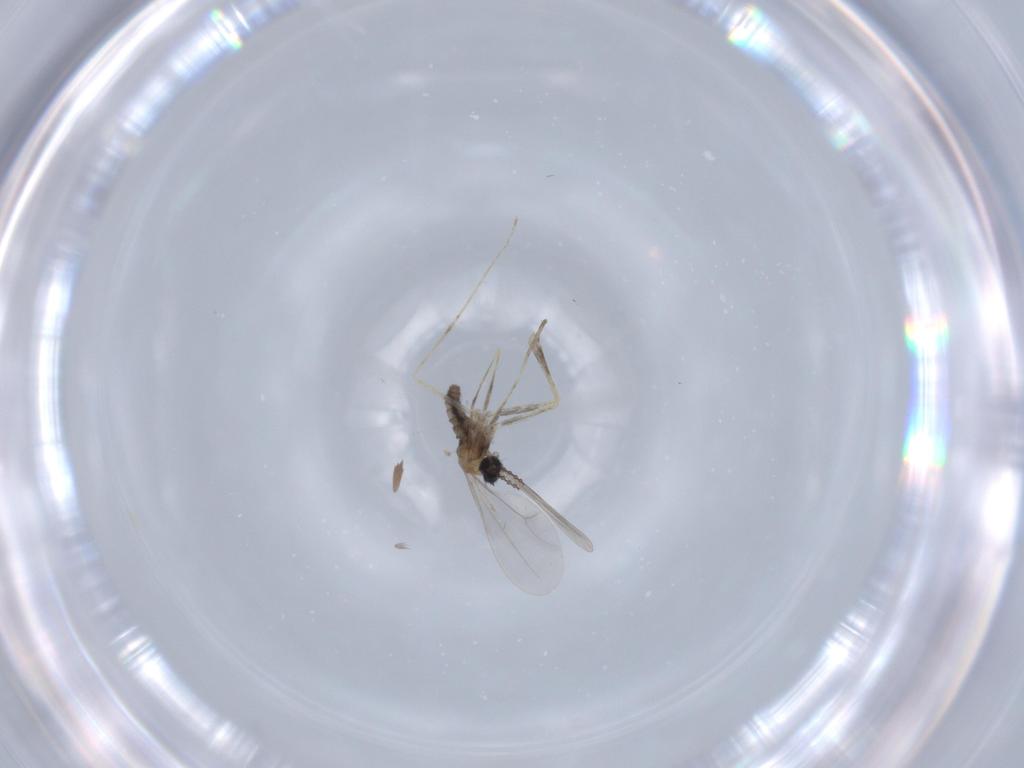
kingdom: Animalia
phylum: Arthropoda
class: Insecta
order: Diptera
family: Cecidomyiidae
